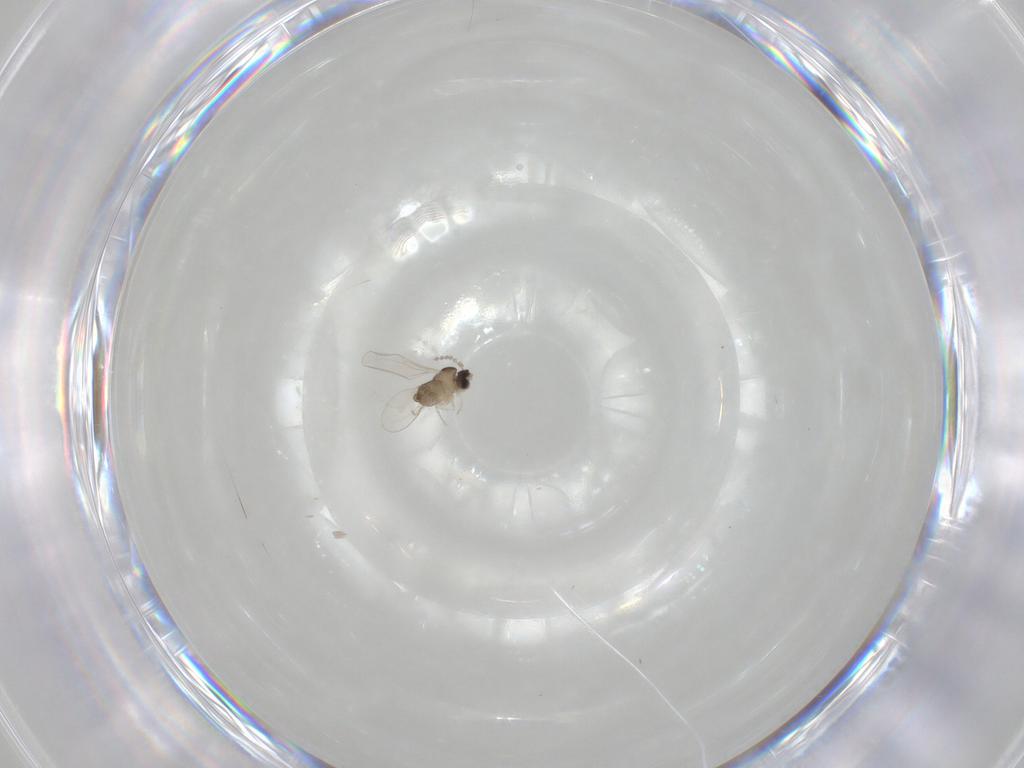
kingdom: Animalia
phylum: Arthropoda
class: Insecta
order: Diptera
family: Cecidomyiidae
